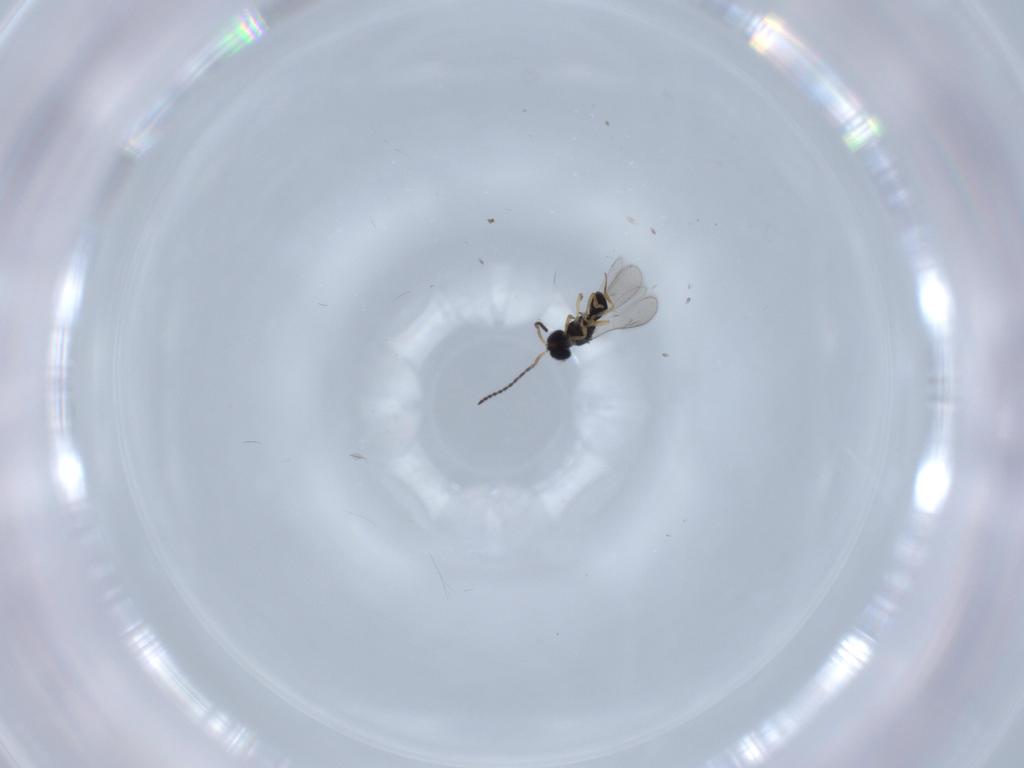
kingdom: Animalia
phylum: Arthropoda
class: Insecta
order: Hymenoptera
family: Scelionidae
